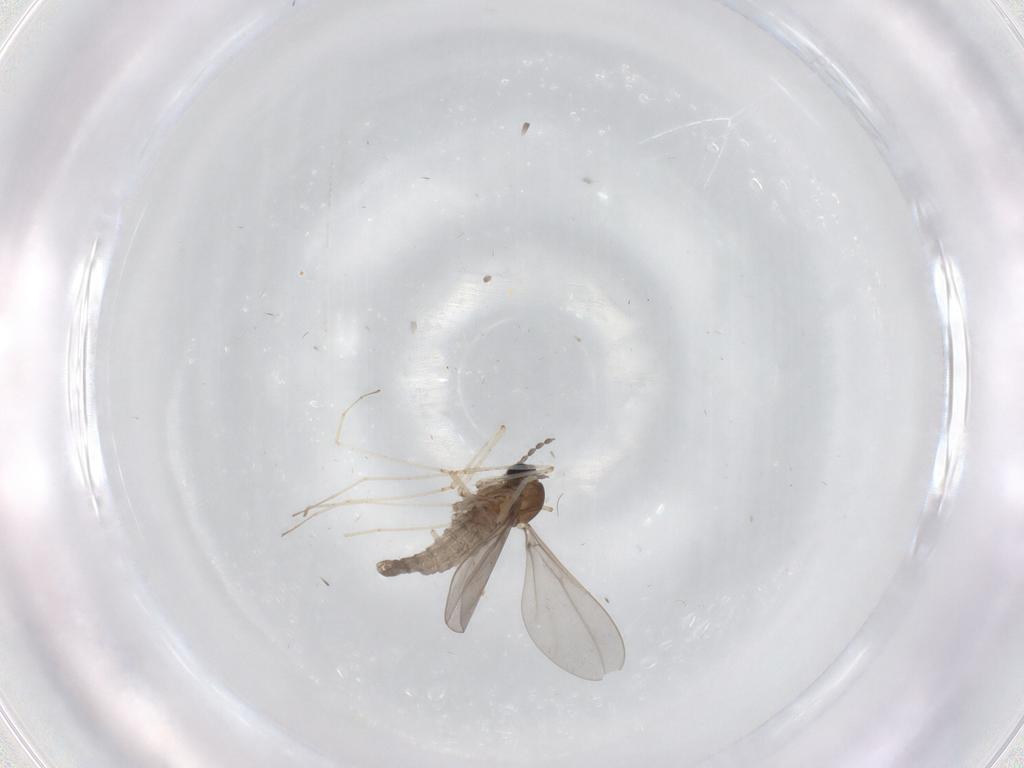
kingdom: Animalia
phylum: Arthropoda
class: Insecta
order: Diptera
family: Cecidomyiidae
